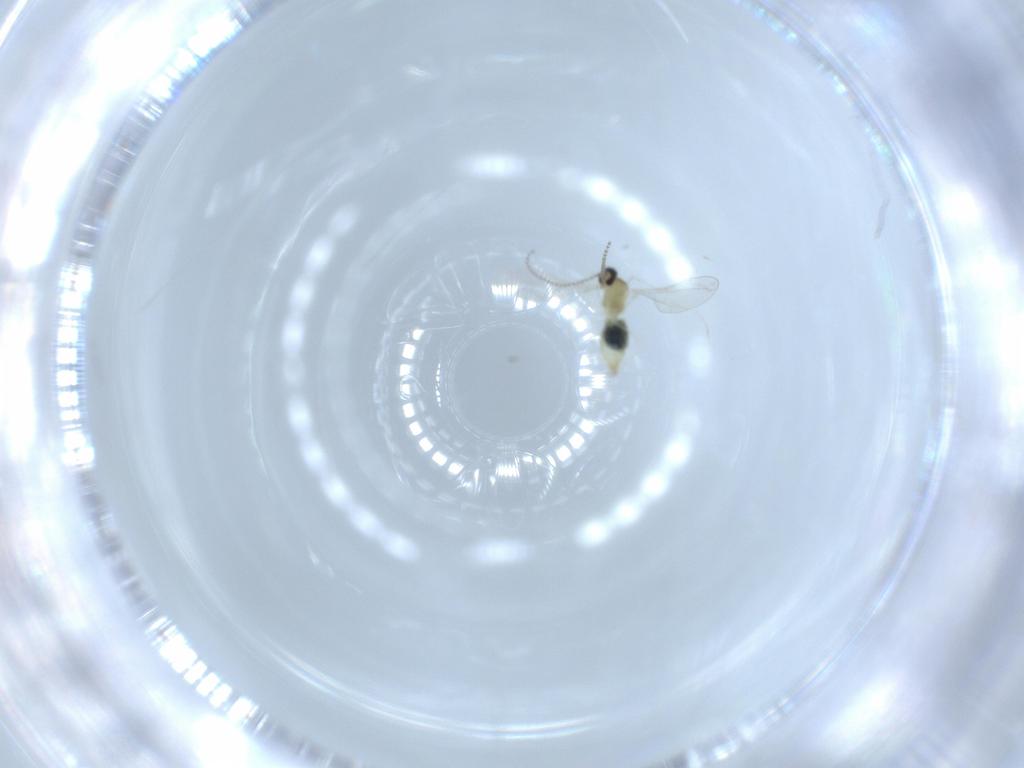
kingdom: Animalia
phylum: Arthropoda
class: Insecta
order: Diptera
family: Cecidomyiidae
